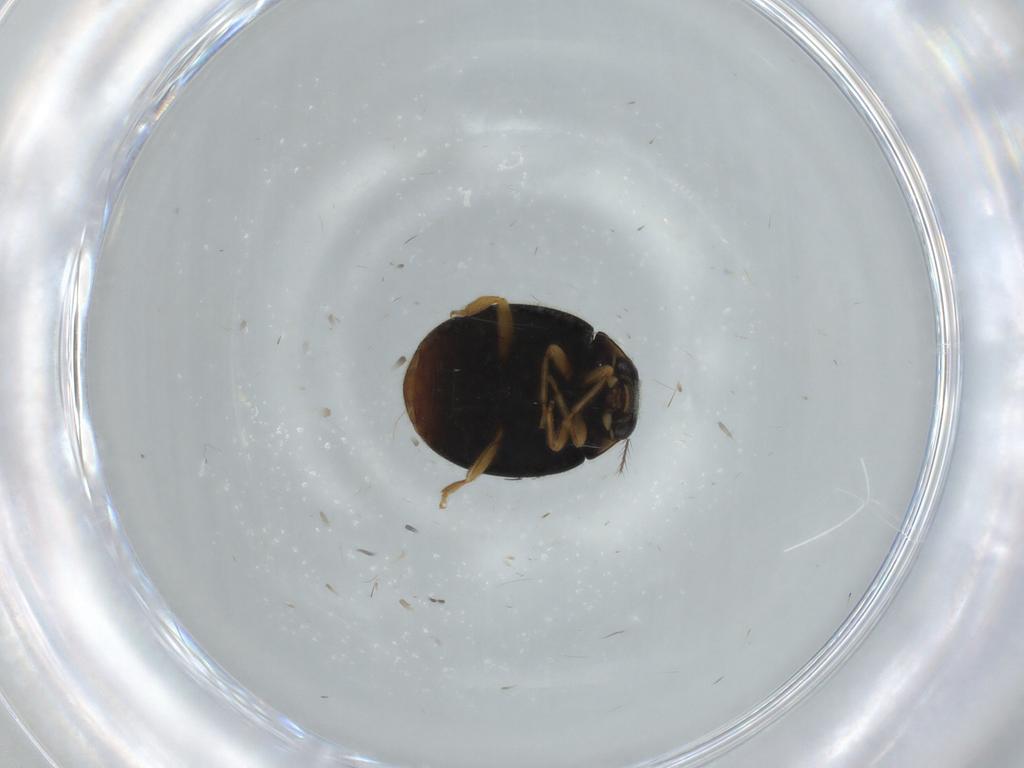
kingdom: Animalia
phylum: Arthropoda
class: Insecta
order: Coleoptera
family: Coccinellidae
